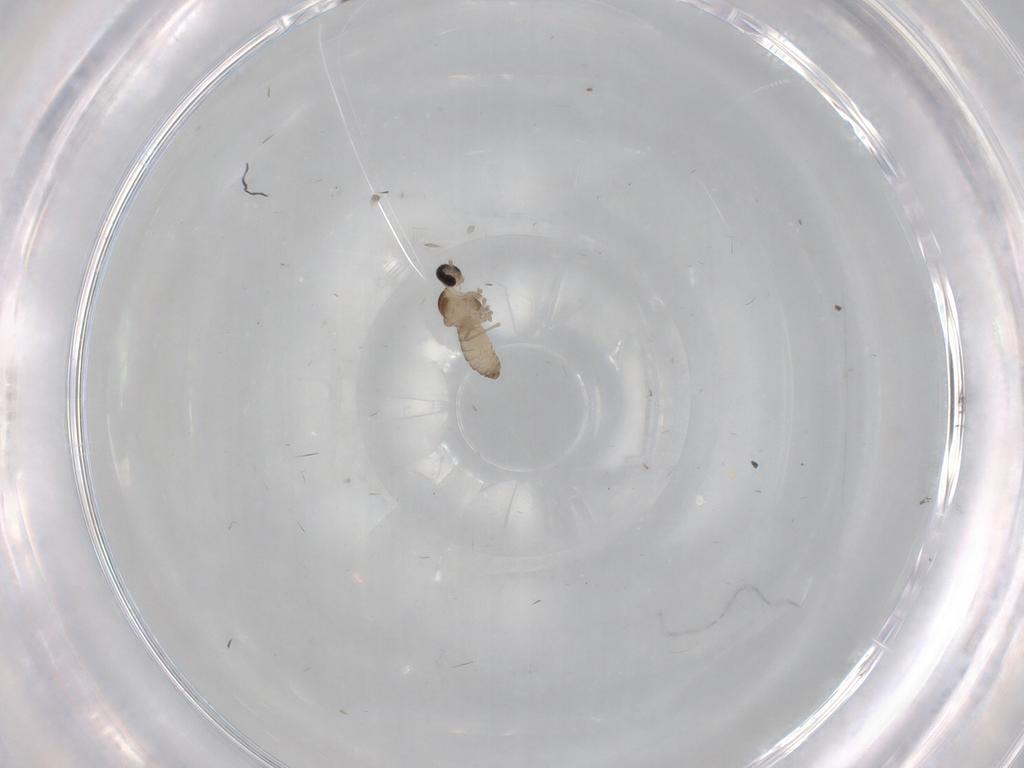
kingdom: Animalia
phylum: Arthropoda
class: Insecta
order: Diptera
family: Cecidomyiidae
